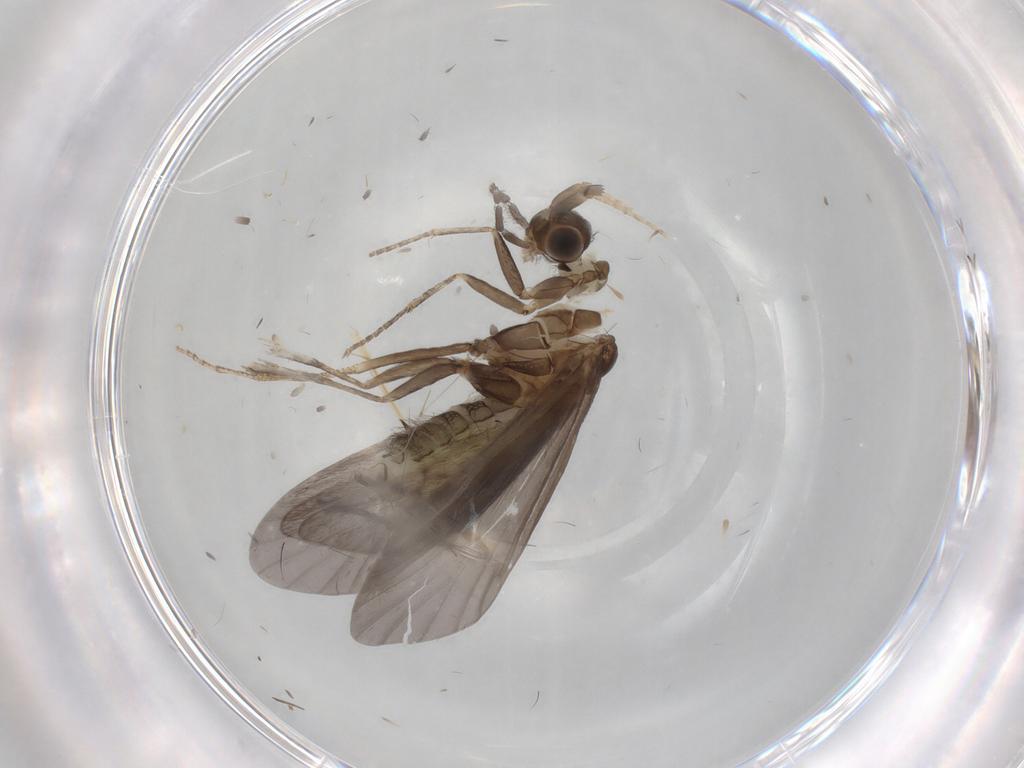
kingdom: Animalia
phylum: Arthropoda
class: Insecta
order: Trichoptera
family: Helicopsychidae
